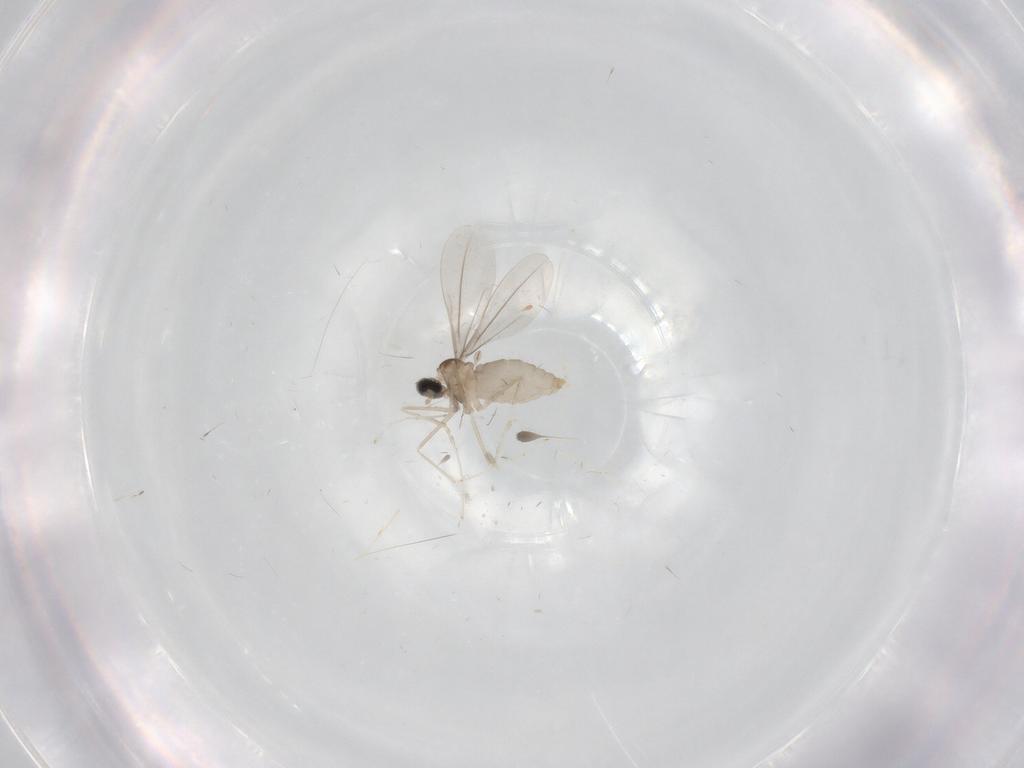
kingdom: Animalia
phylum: Arthropoda
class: Insecta
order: Diptera
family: Cecidomyiidae
